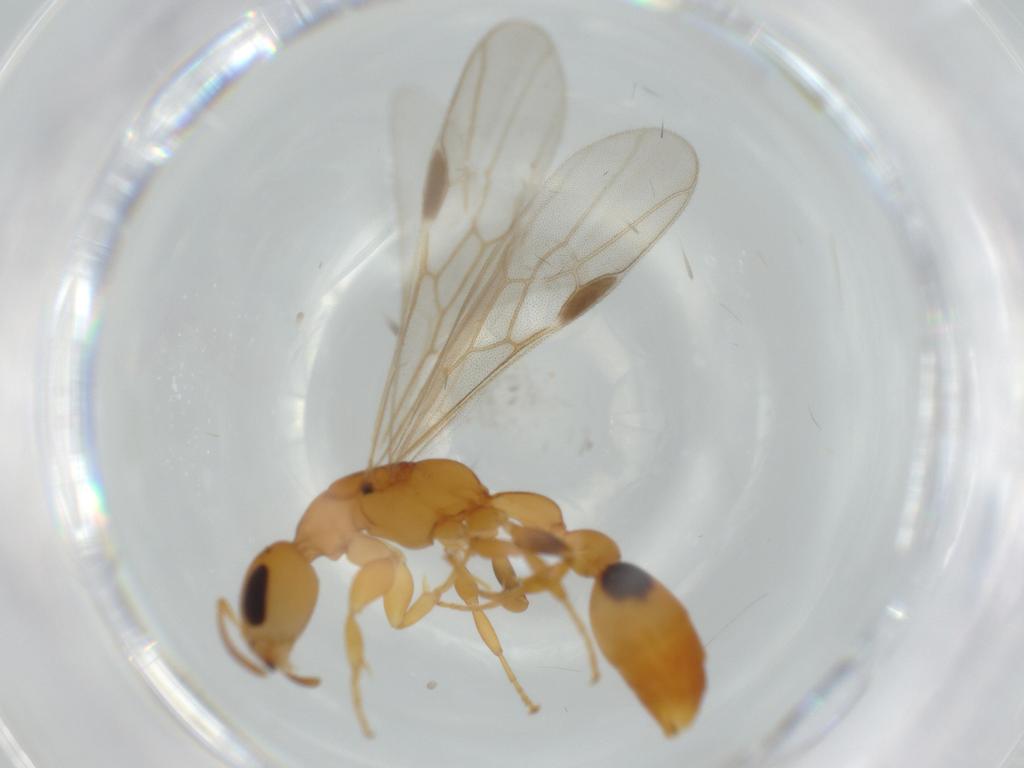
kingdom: Animalia
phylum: Arthropoda
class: Insecta
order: Hymenoptera
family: Formicidae
